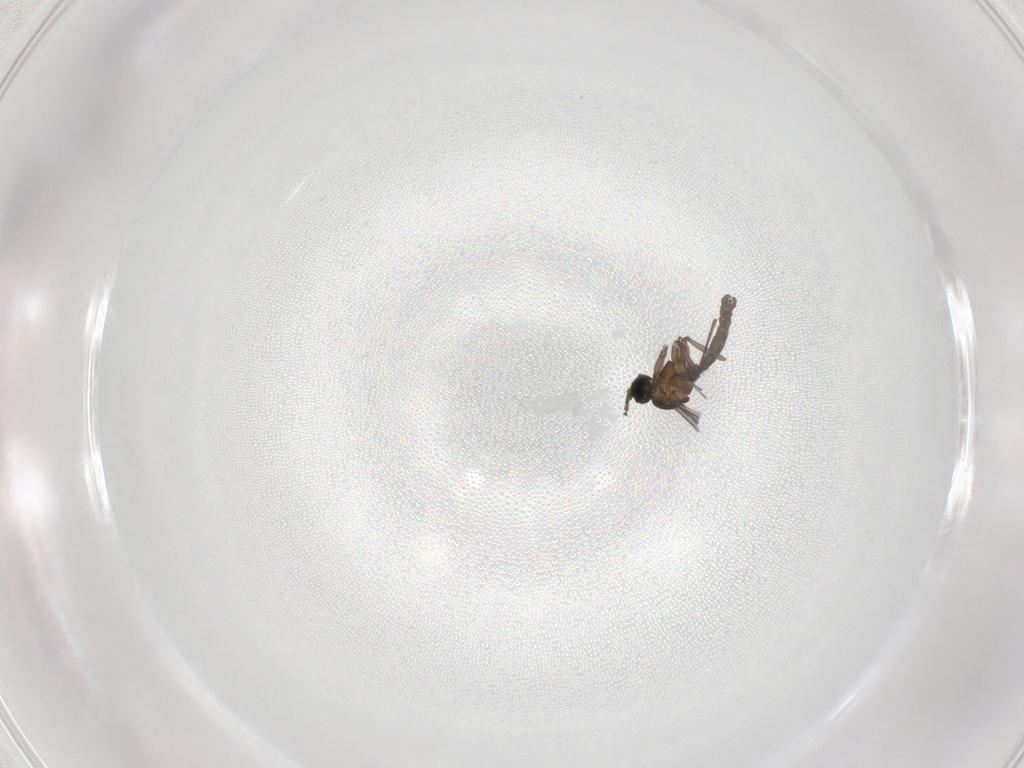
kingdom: Animalia
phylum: Arthropoda
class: Insecta
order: Diptera
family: Sciaridae
